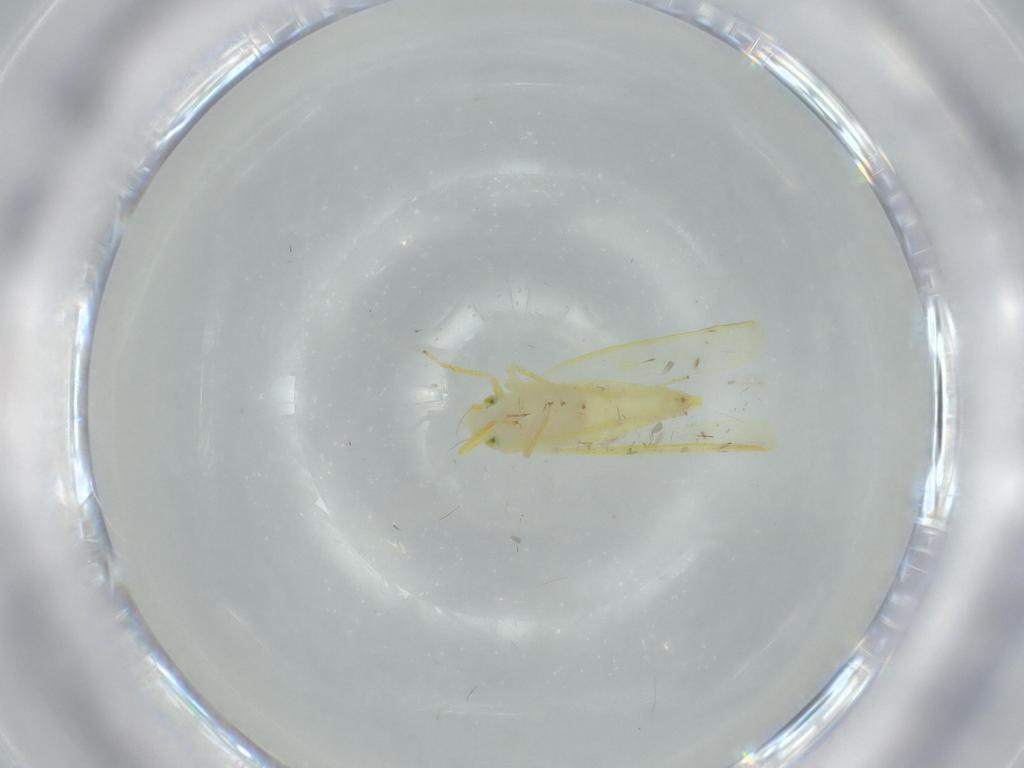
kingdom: Animalia
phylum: Arthropoda
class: Insecta
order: Hemiptera
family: Cicadellidae
